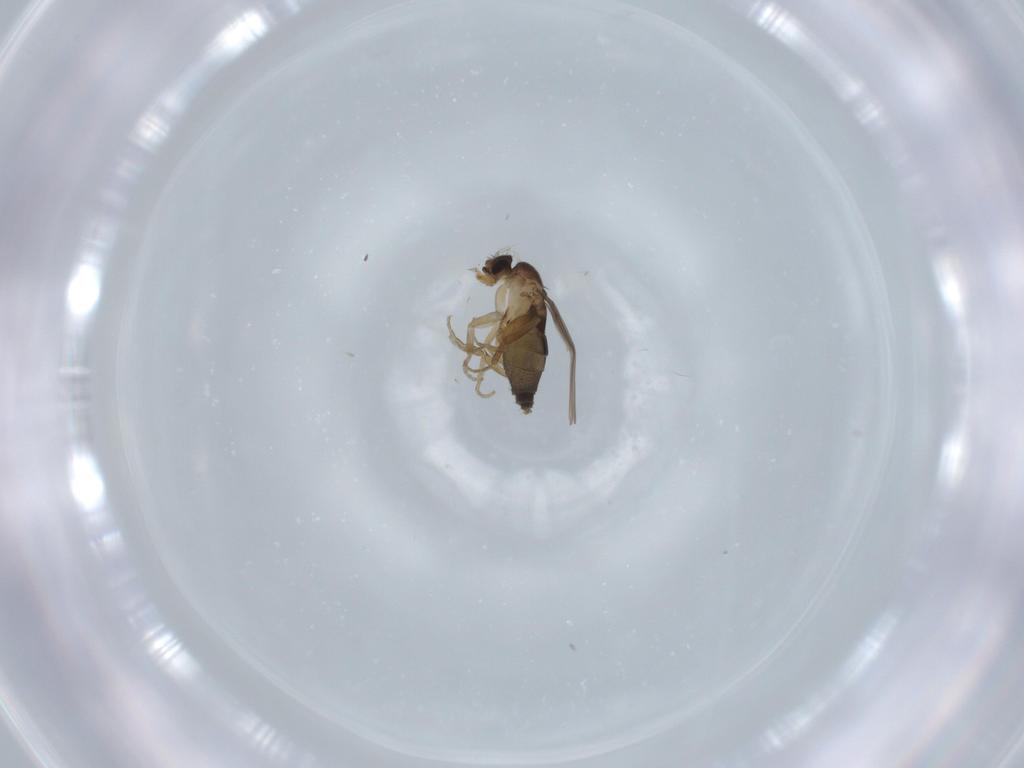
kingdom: Animalia
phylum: Arthropoda
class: Insecta
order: Diptera
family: Phoridae
